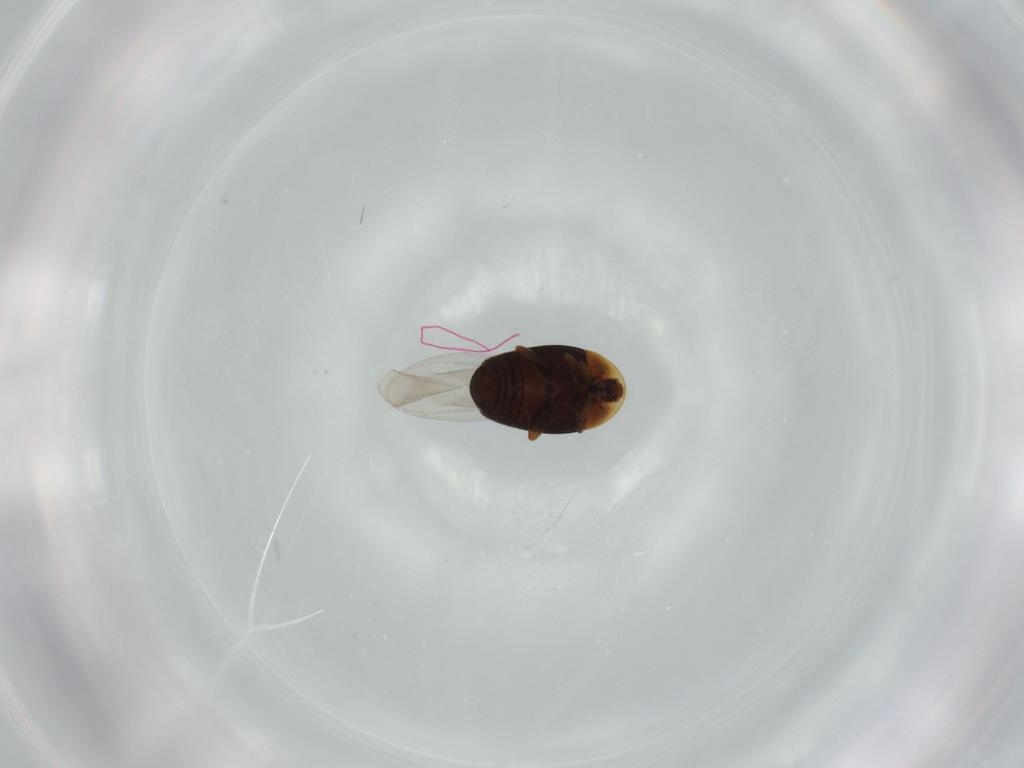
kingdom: Animalia
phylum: Arthropoda
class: Insecta
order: Coleoptera
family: Corylophidae
